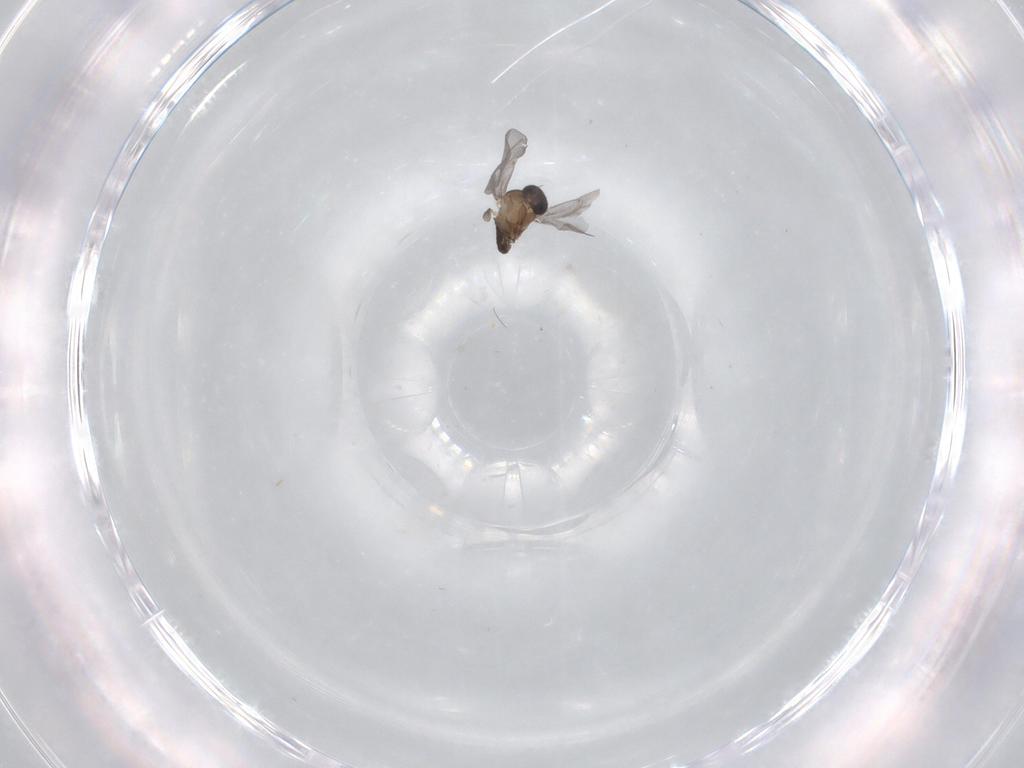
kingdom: Animalia
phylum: Arthropoda
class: Insecta
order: Diptera
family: Phoridae
